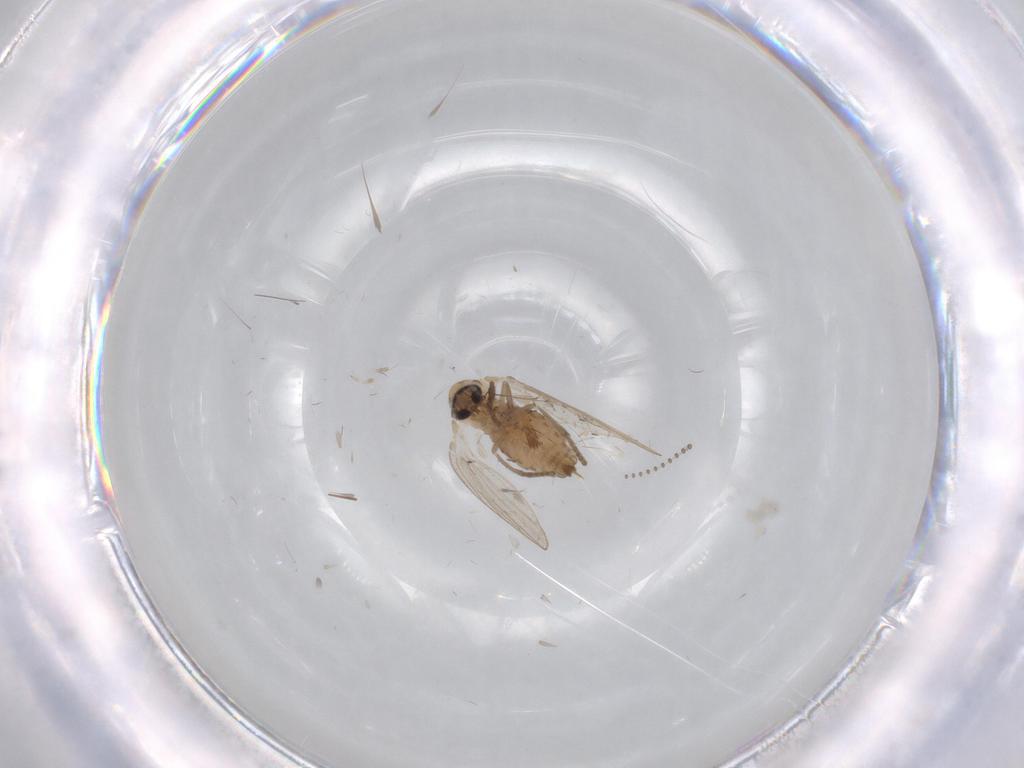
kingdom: Animalia
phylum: Arthropoda
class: Insecta
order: Diptera
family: Psychodidae
